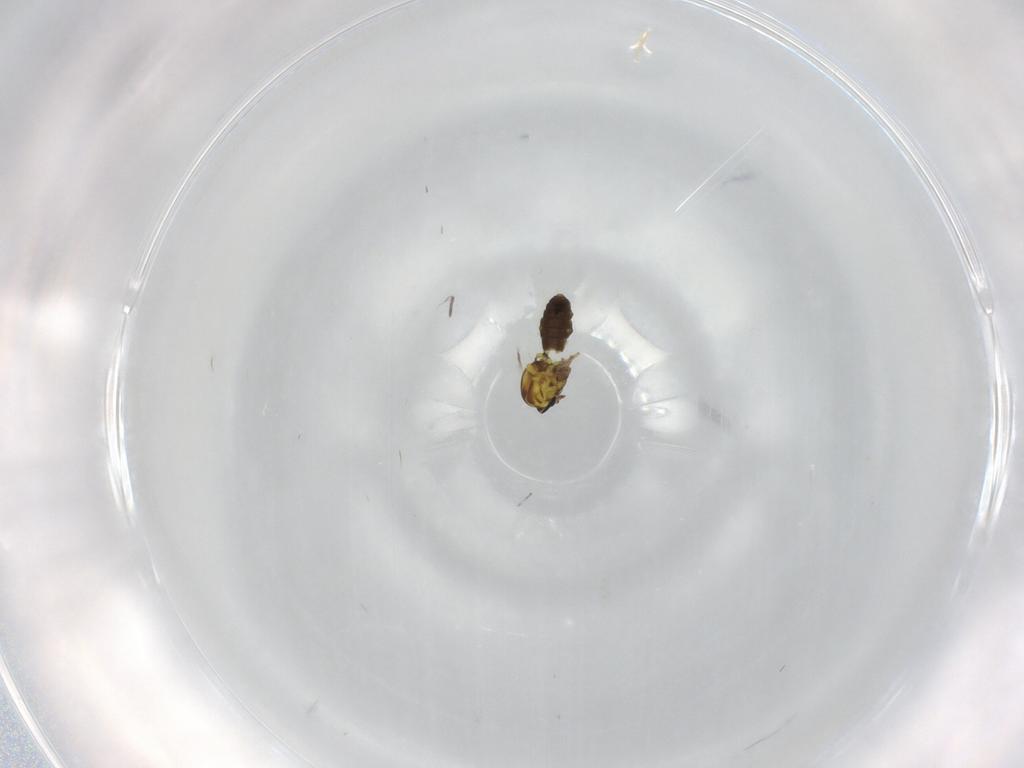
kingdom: Animalia
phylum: Arthropoda
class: Insecta
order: Diptera
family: Ceratopogonidae
